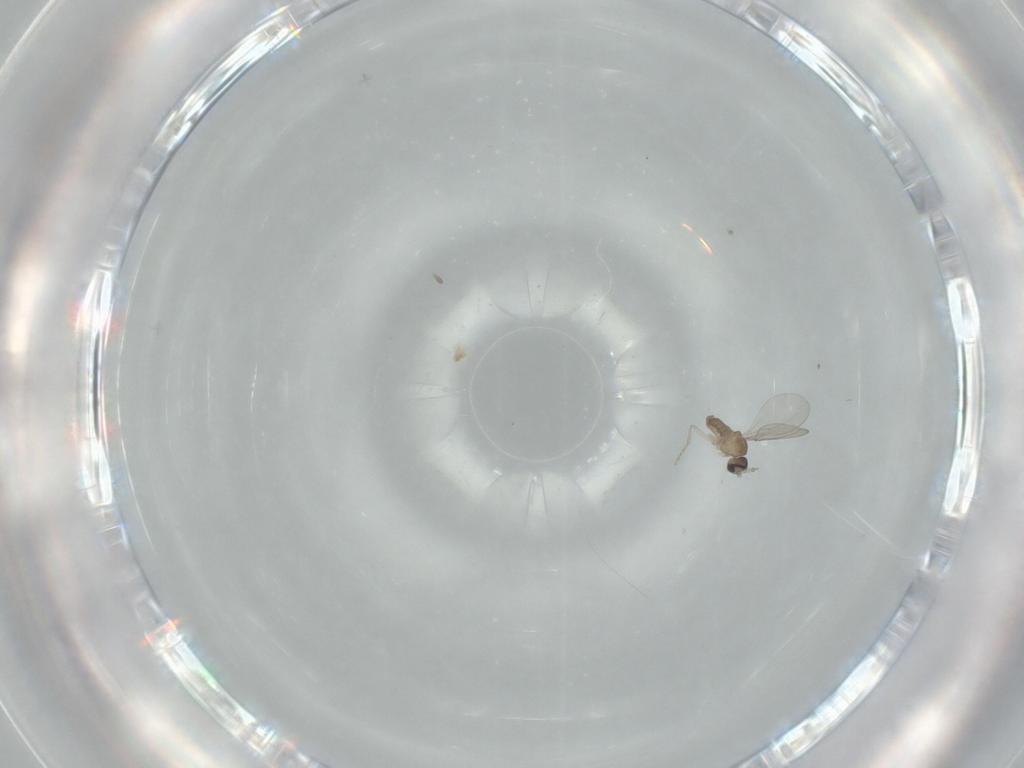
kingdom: Animalia
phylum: Arthropoda
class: Insecta
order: Diptera
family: Cecidomyiidae
